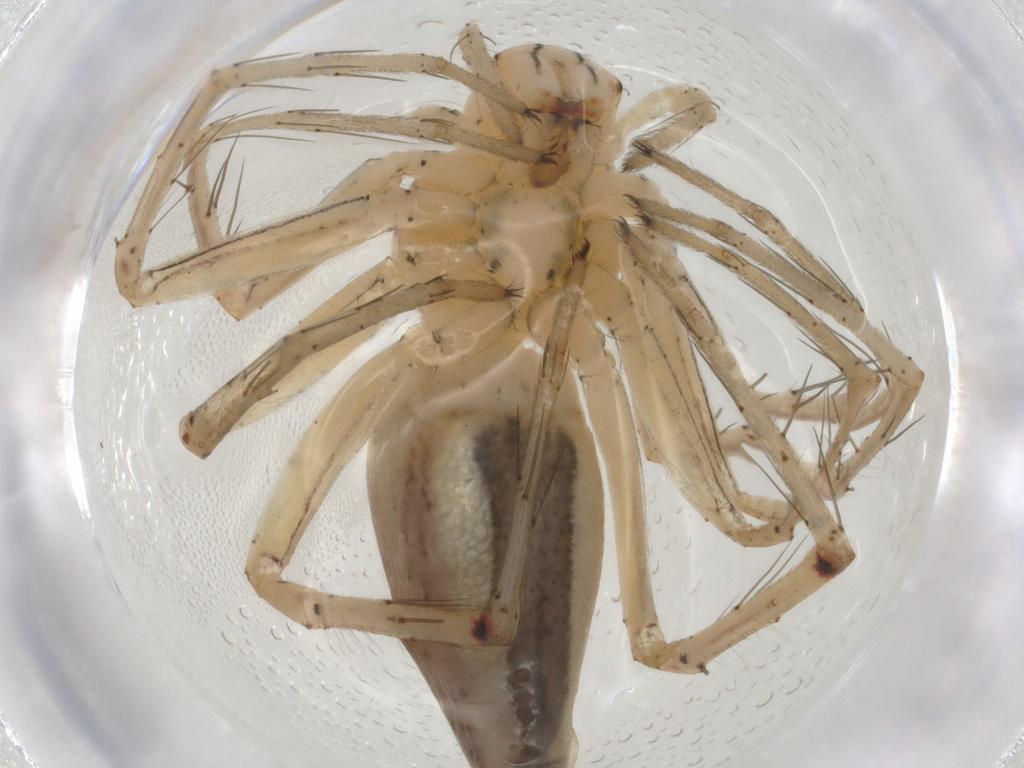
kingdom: Animalia
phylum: Arthropoda
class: Arachnida
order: Araneae
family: Oxyopidae
